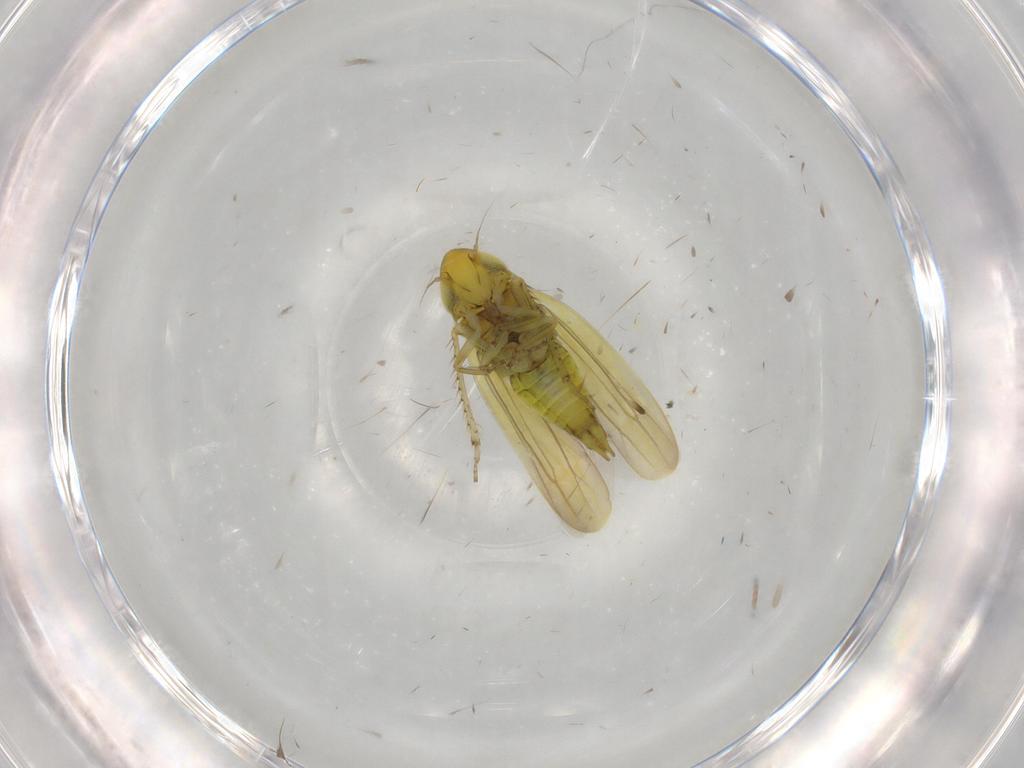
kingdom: Animalia
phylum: Arthropoda
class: Insecta
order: Hemiptera
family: Cicadellidae
